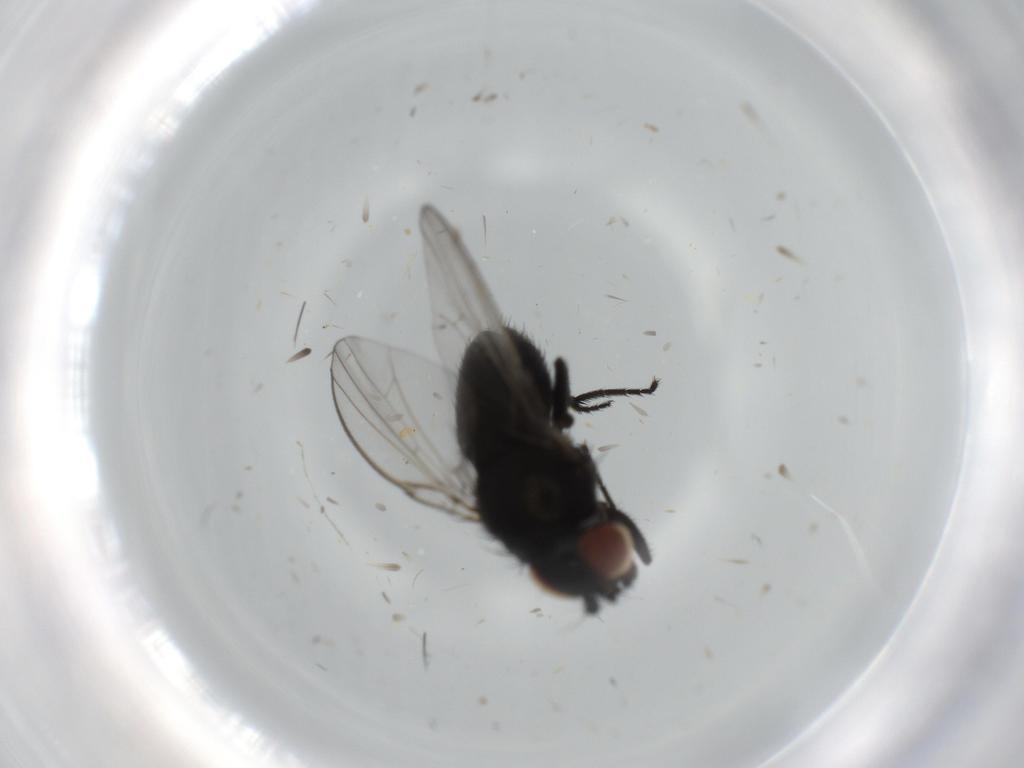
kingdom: Animalia
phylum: Arthropoda
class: Insecta
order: Diptera
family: Milichiidae
